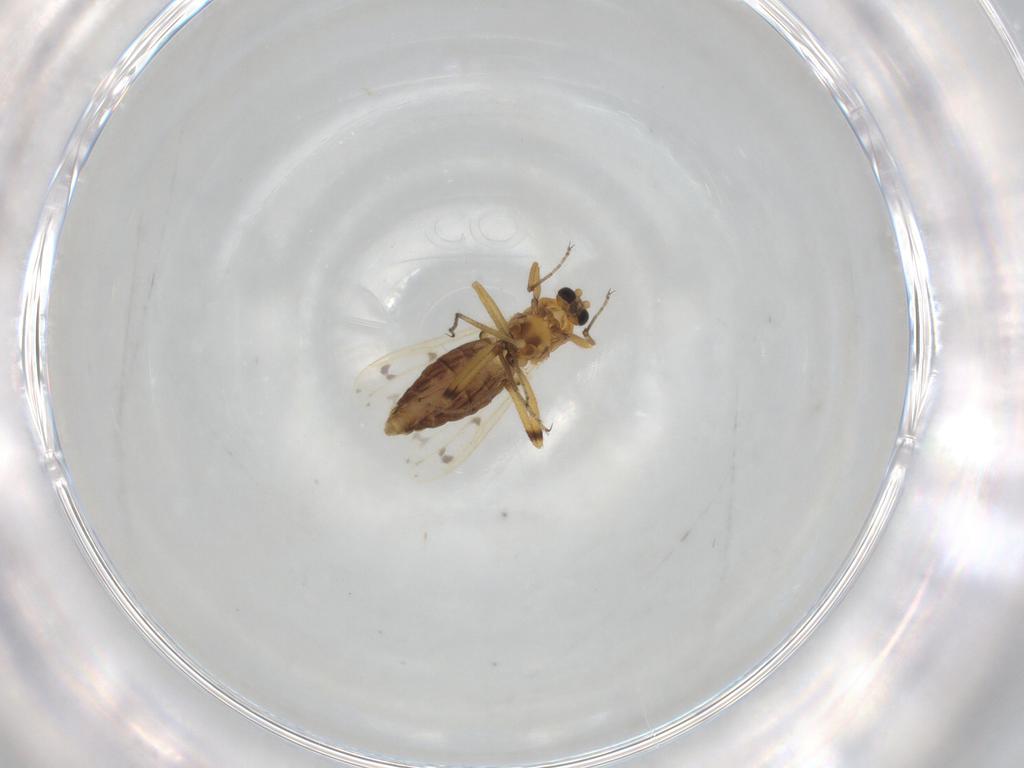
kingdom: Animalia
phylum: Arthropoda
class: Insecta
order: Diptera
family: Ceratopogonidae
